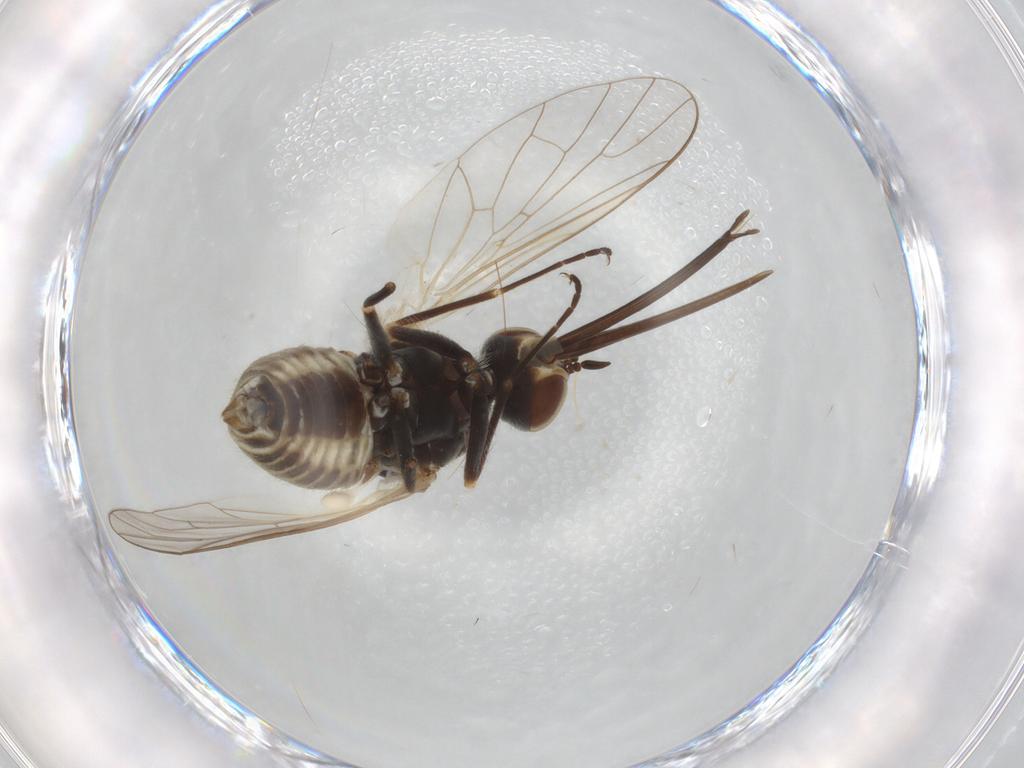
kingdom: Animalia
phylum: Arthropoda
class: Insecta
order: Diptera
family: Bombyliidae
